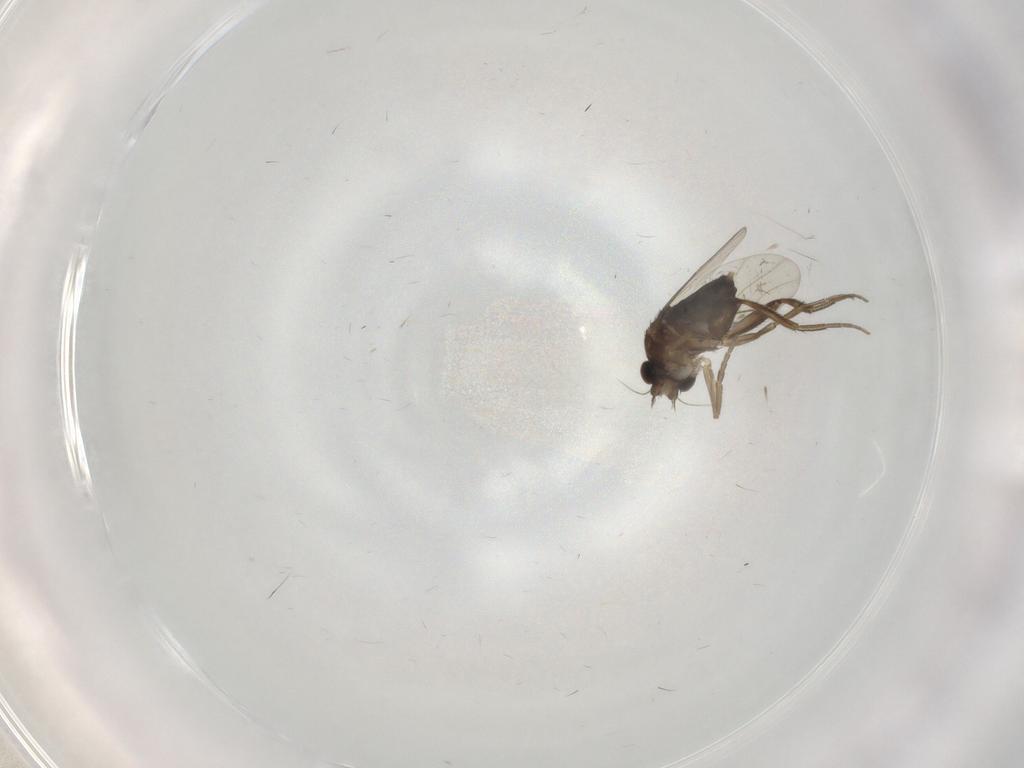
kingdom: Animalia
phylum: Arthropoda
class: Insecta
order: Diptera
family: Phoridae
